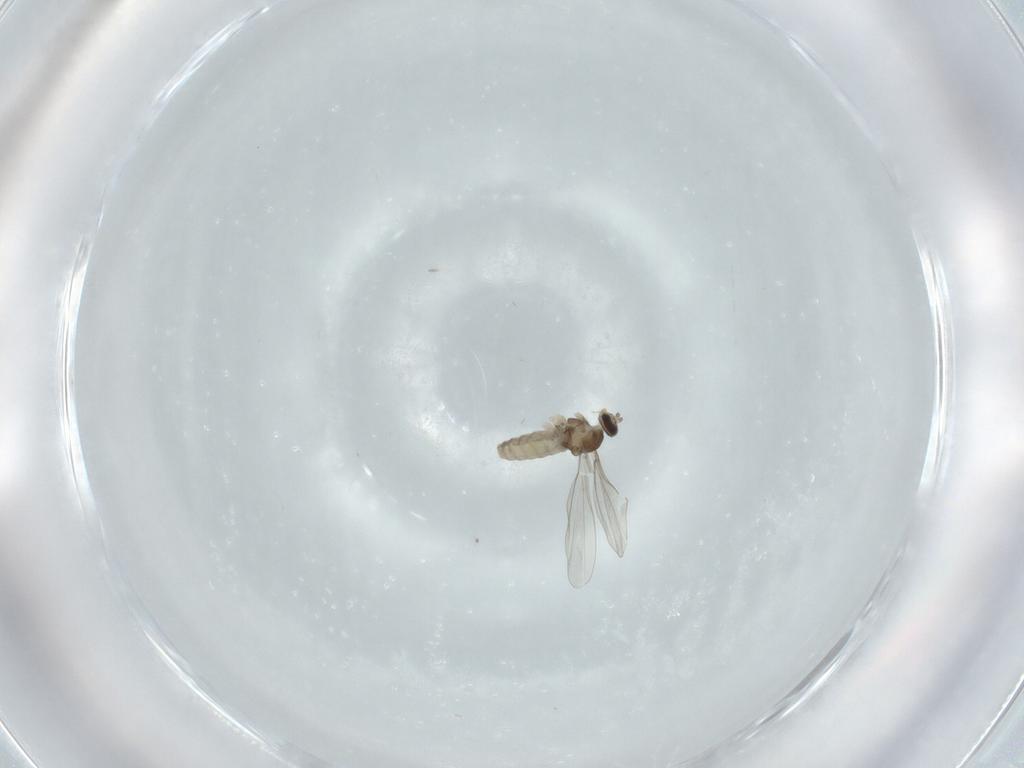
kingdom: Animalia
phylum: Arthropoda
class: Insecta
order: Diptera
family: Cecidomyiidae
